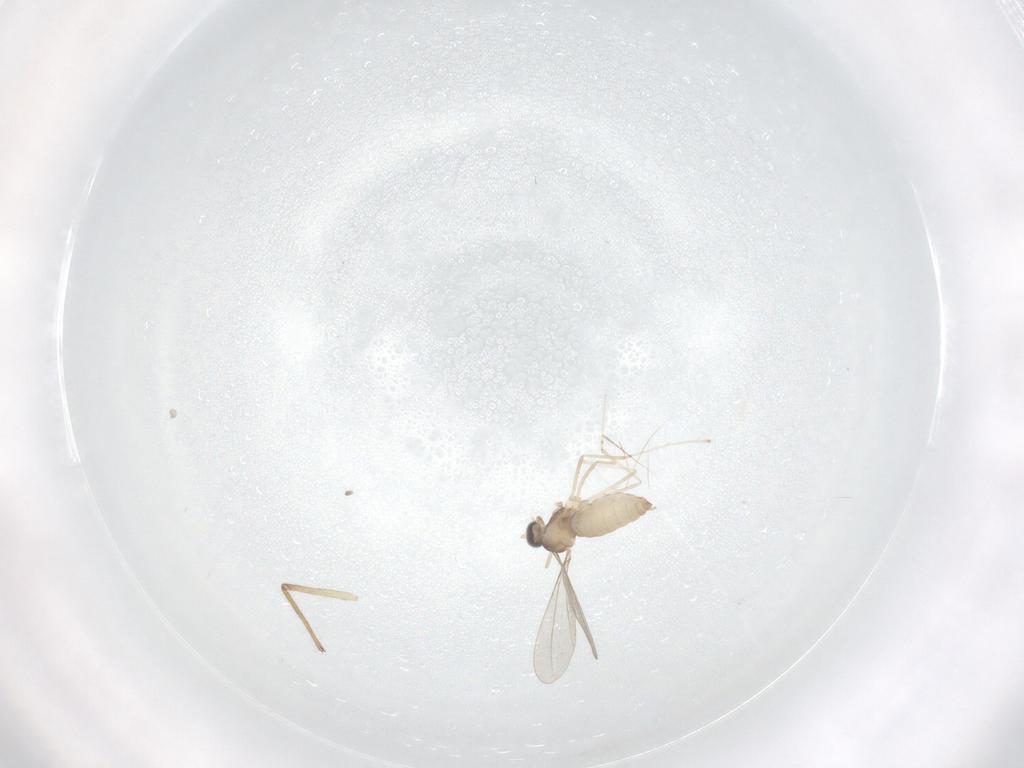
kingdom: Animalia
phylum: Arthropoda
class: Insecta
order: Diptera
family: Chironomidae
